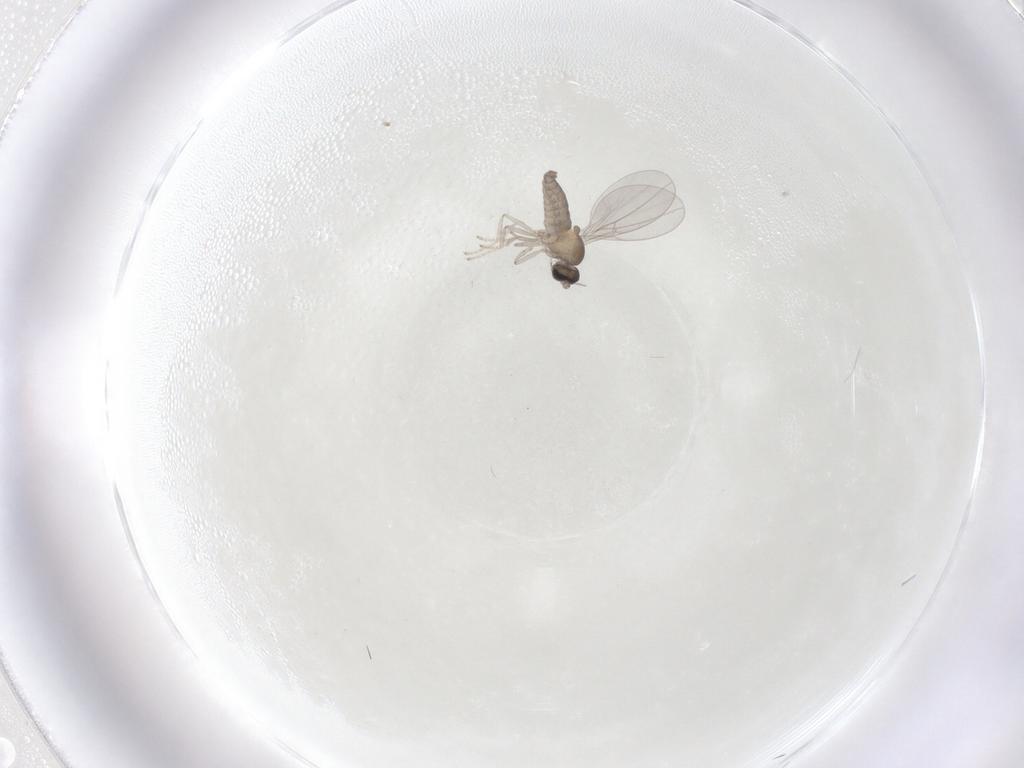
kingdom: Animalia
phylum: Arthropoda
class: Insecta
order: Diptera
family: Cecidomyiidae
